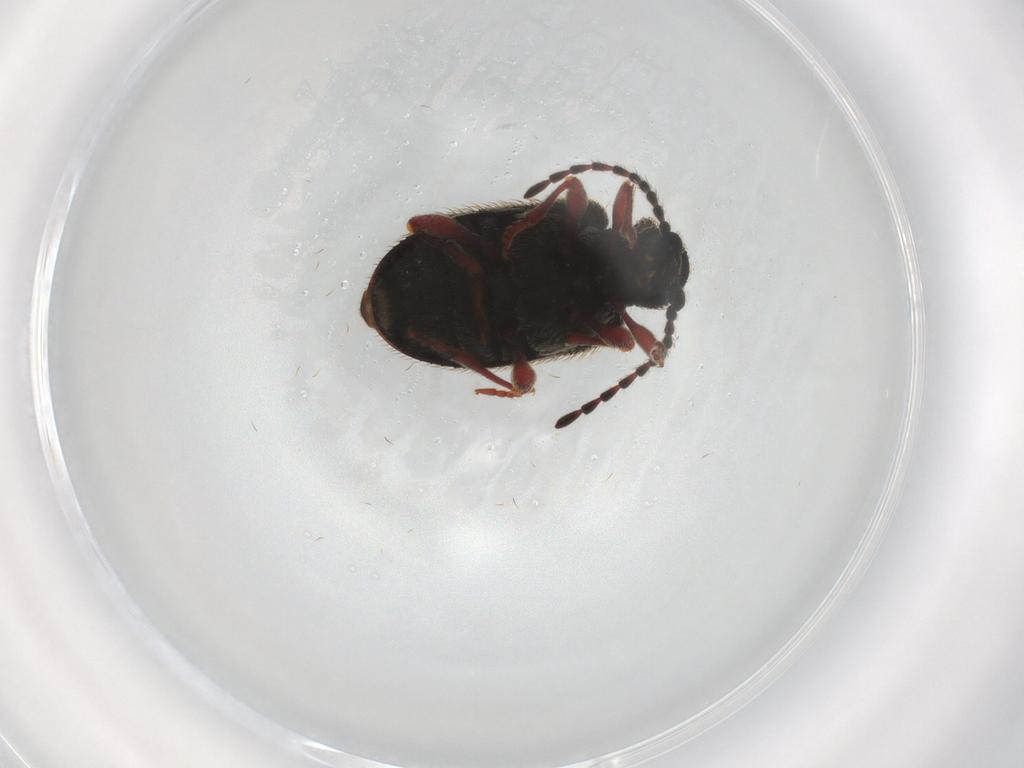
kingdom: Animalia
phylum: Arthropoda
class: Insecta
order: Coleoptera
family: Ptinidae
